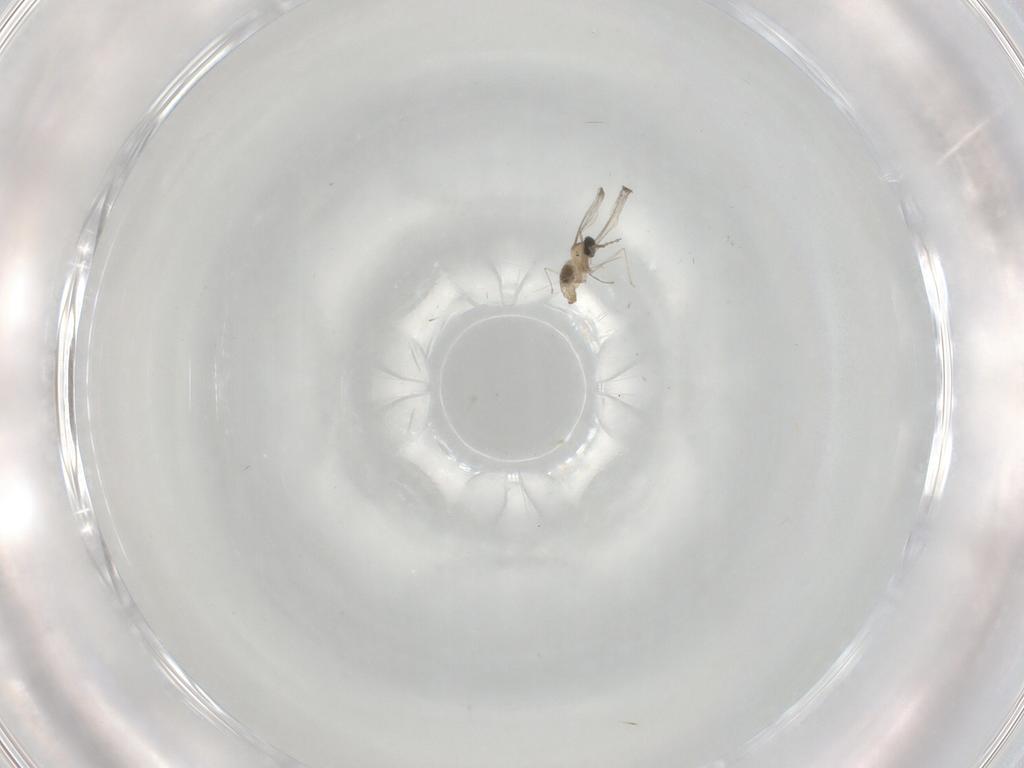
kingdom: Animalia
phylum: Arthropoda
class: Insecta
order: Diptera
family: Cecidomyiidae
